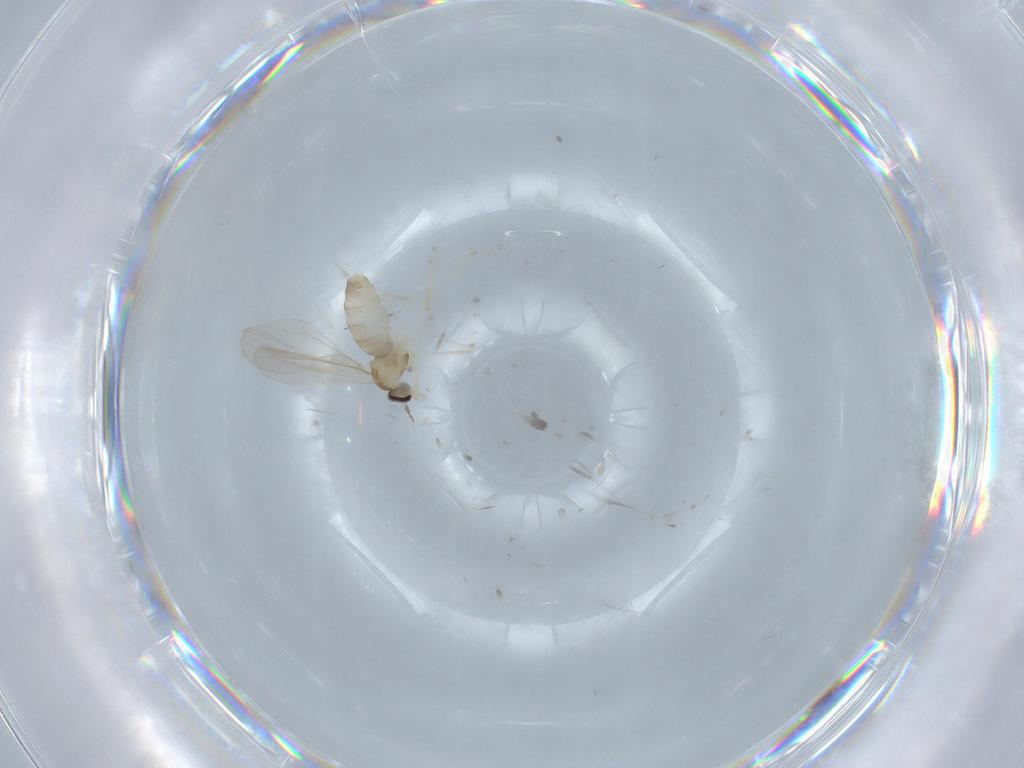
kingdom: Animalia
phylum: Arthropoda
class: Insecta
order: Diptera
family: Cecidomyiidae
